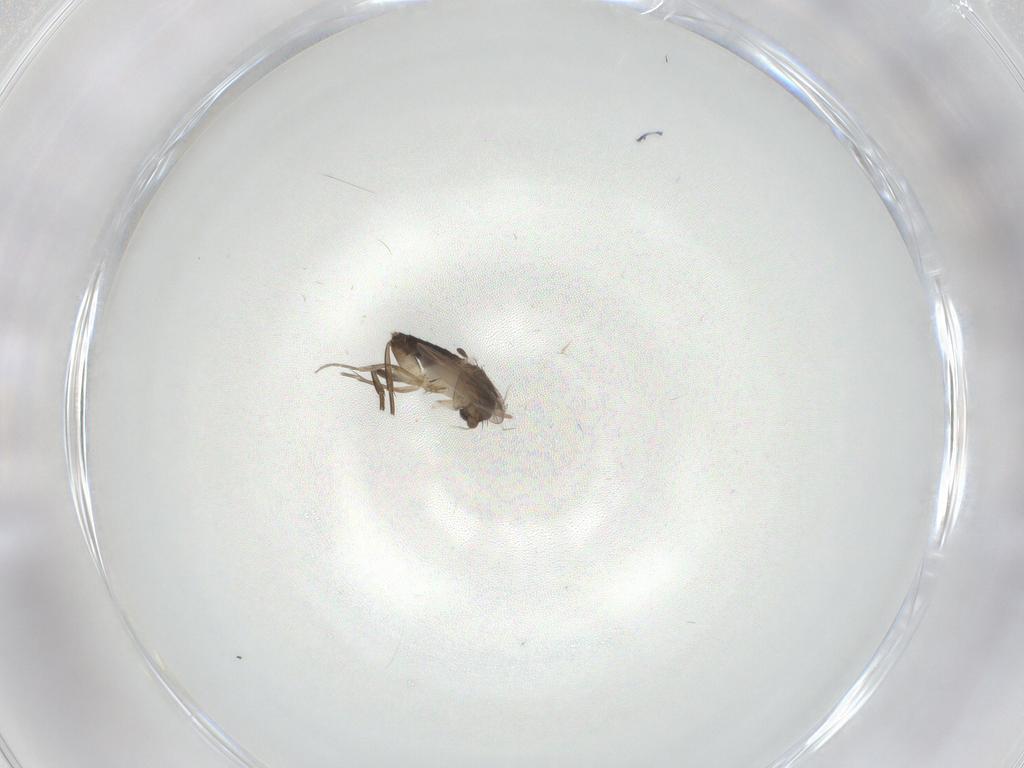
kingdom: Animalia
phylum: Arthropoda
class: Insecta
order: Diptera
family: Phoridae
